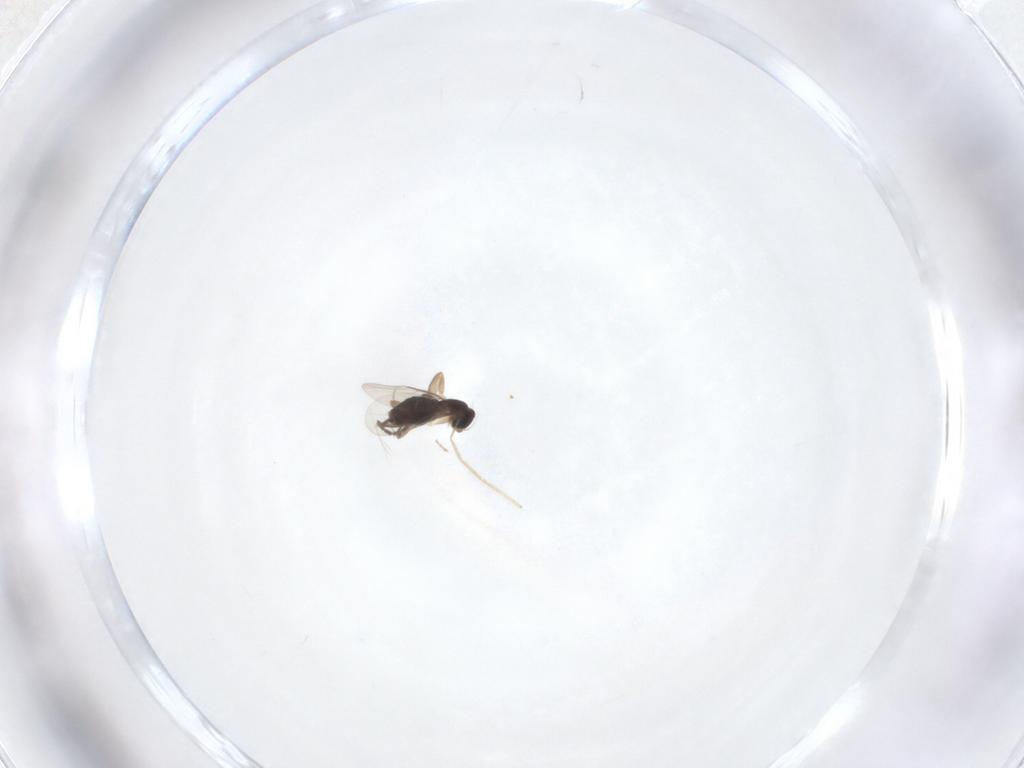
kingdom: Animalia
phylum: Arthropoda
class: Insecta
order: Diptera
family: Phoridae
